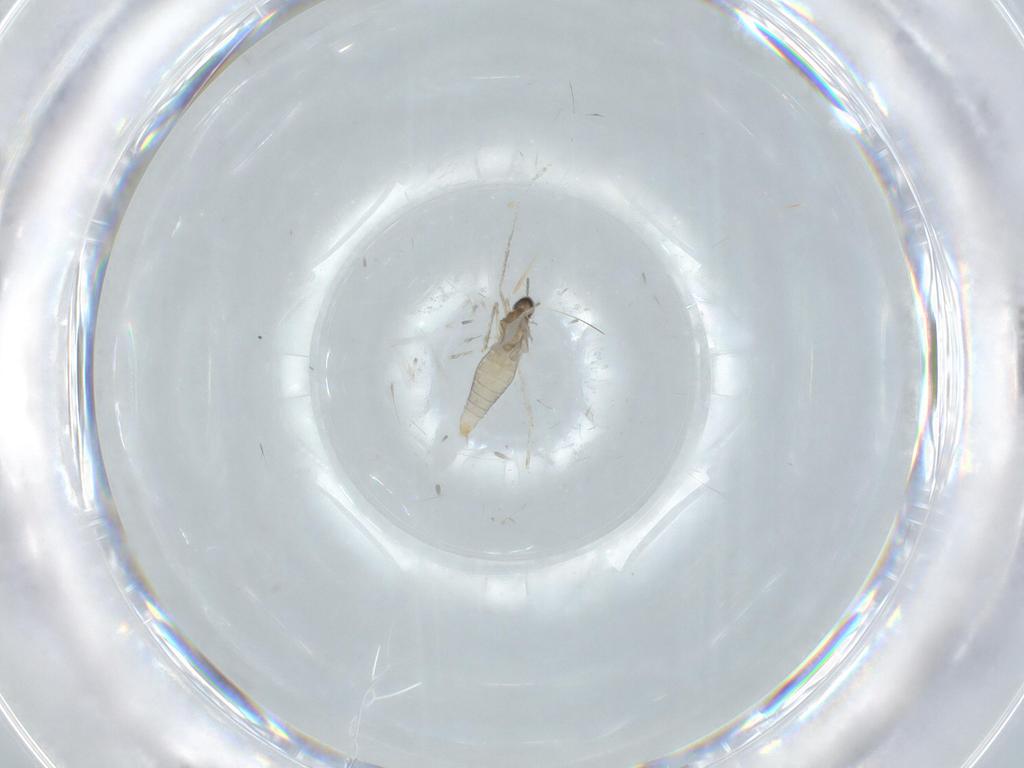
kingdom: Animalia
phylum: Arthropoda
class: Insecta
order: Diptera
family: Cecidomyiidae
